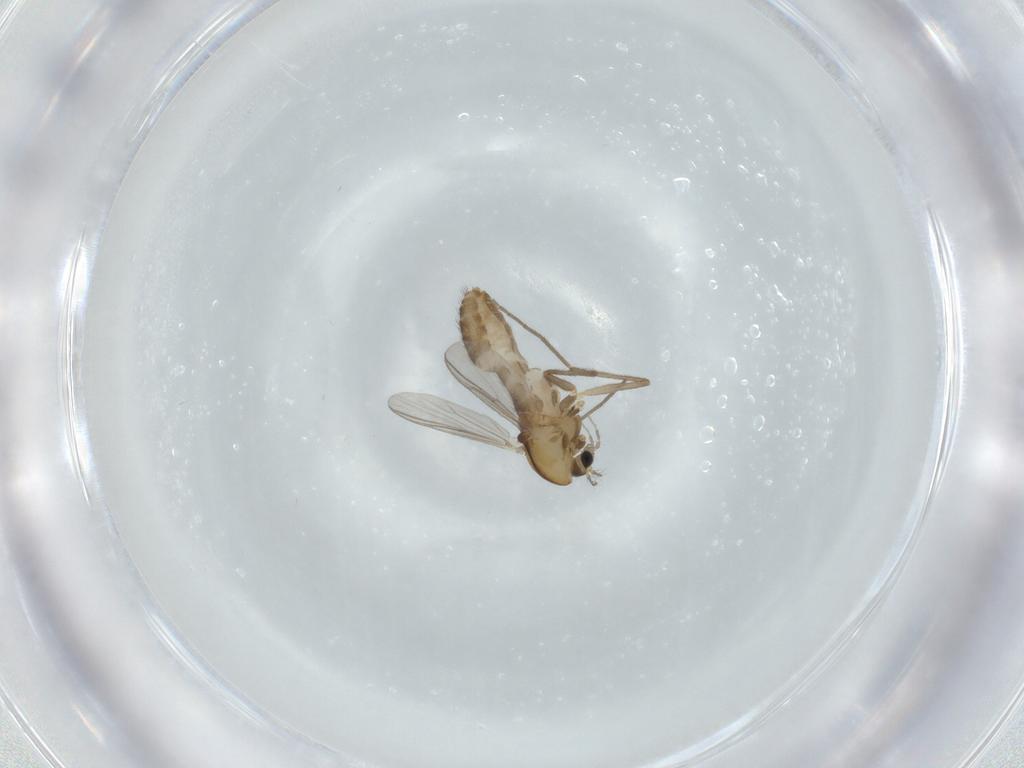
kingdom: Animalia
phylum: Arthropoda
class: Insecta
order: Diptera
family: Chironomidae
